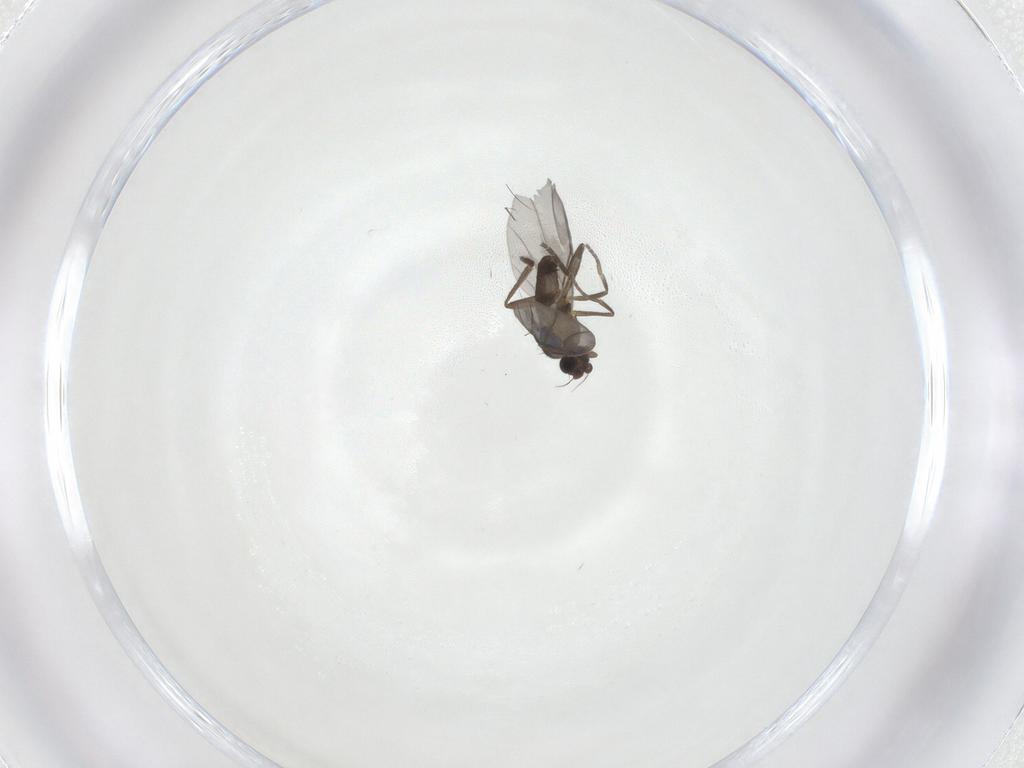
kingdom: Animalia
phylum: Arthropoda
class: Insecta
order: Diptera
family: Phoridae
